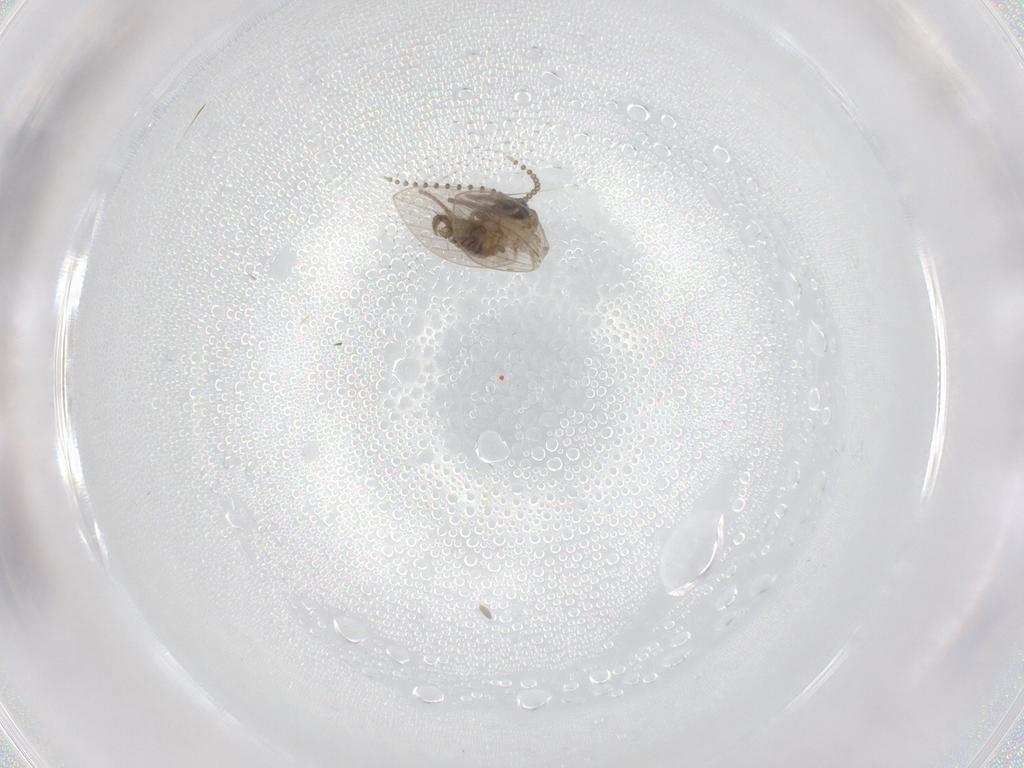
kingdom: Animalia
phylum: Arthropoda
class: Insecta
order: Diptera
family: Psychodidae
